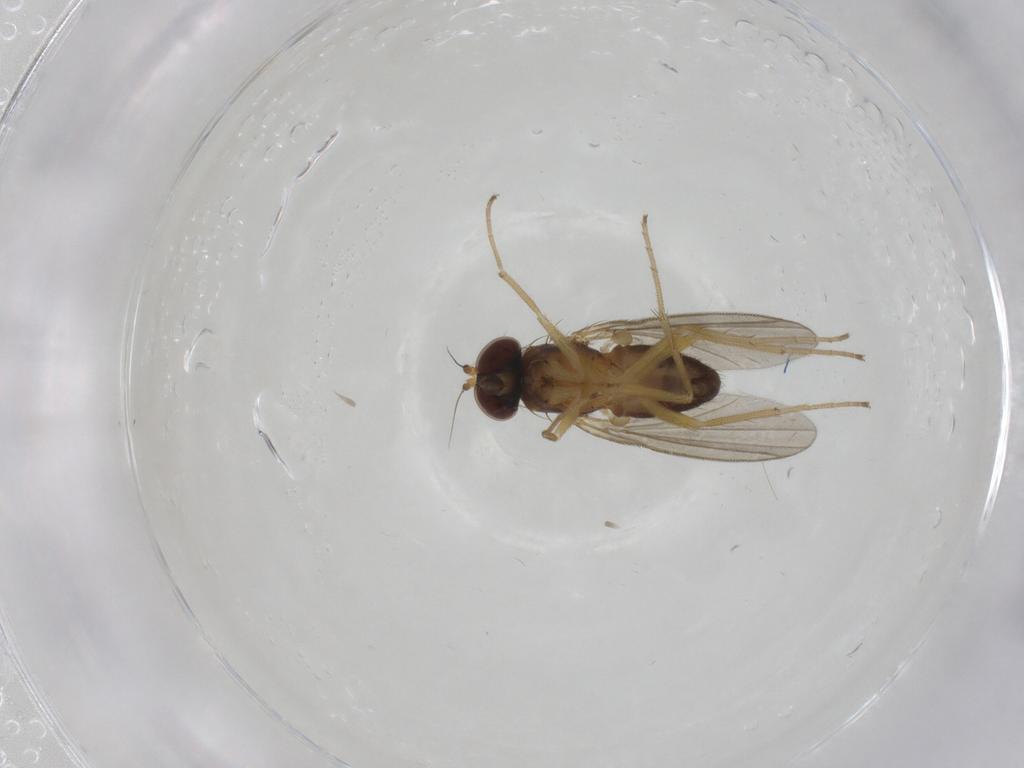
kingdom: Animalia
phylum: Arthropoda
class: Insecta
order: Diptera
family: Dolichopodidae
